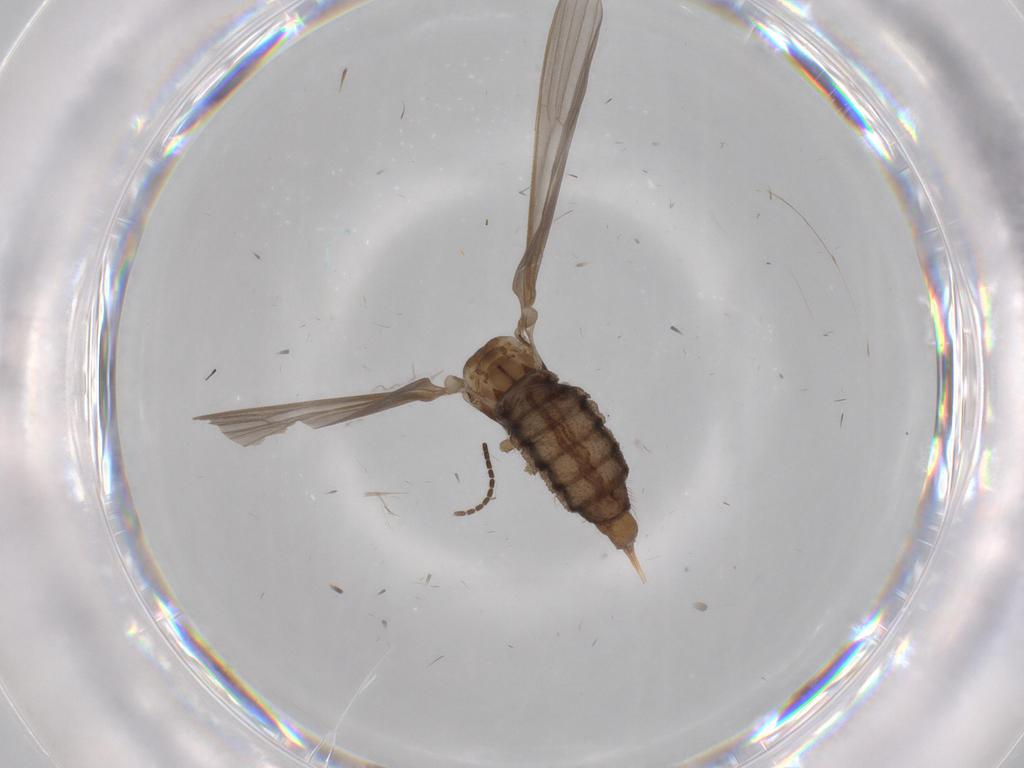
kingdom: Animalia
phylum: Arthropoda
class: Insecta
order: Diptera
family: Limoniidae
